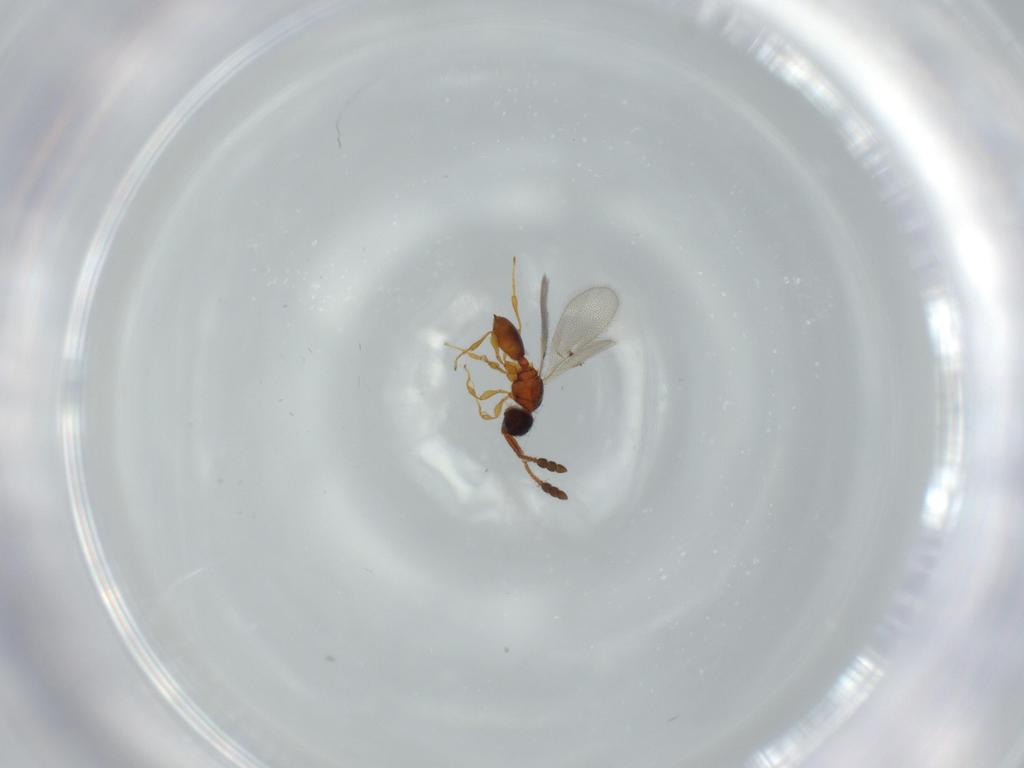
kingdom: Animalia
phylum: Arthropoda
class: Insecta
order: Hymenoptera
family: Diapriidae
